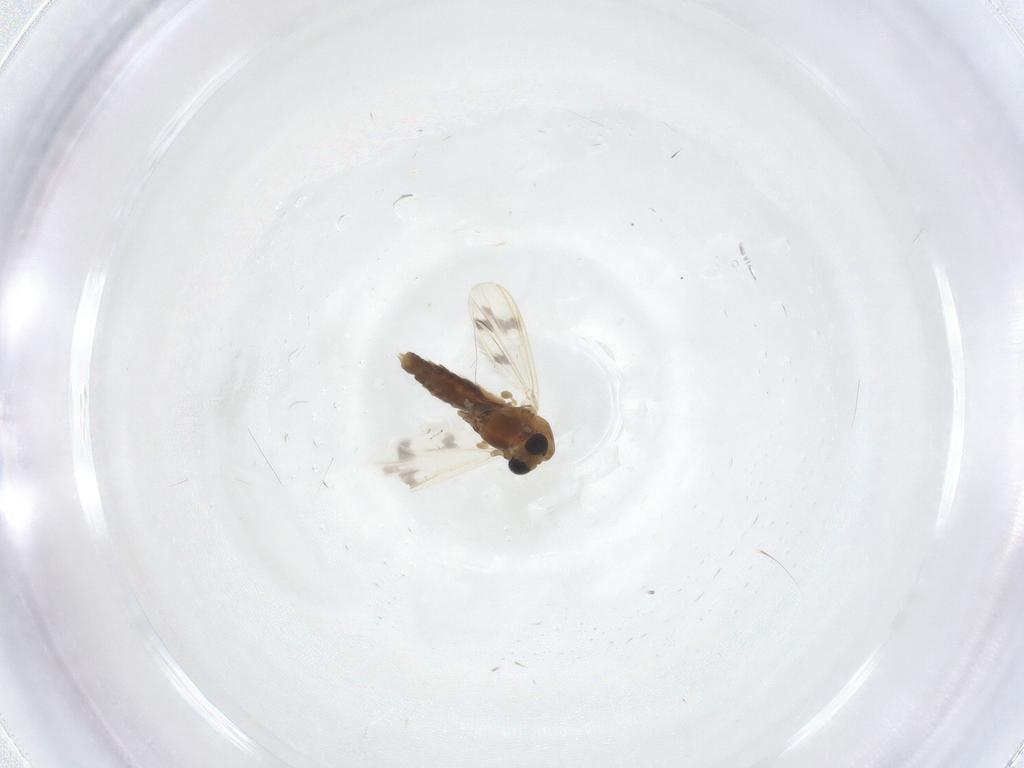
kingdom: Animalia
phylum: Arthropoda
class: Insecta
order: Diptera
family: Chironomidae
